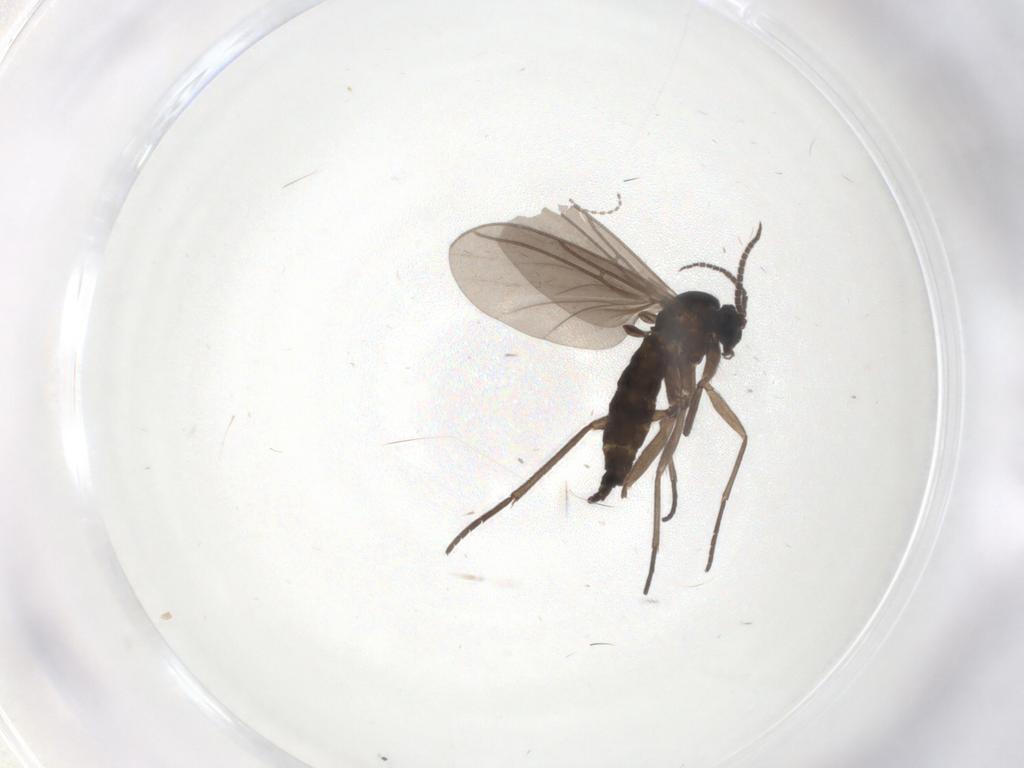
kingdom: Animalia
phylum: Arthropoda
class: Insecta
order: Diptera
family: Sciaridae
